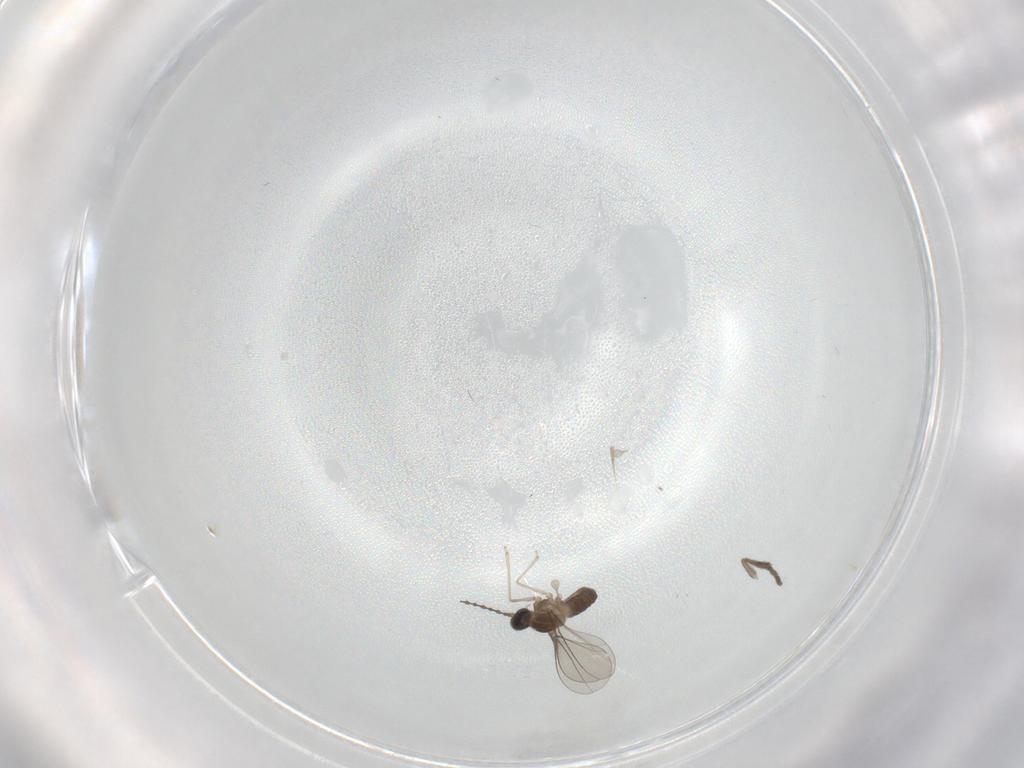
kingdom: Animalia
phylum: Arthropoda
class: Insecta
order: Diptera
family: Cecidomyiidae
